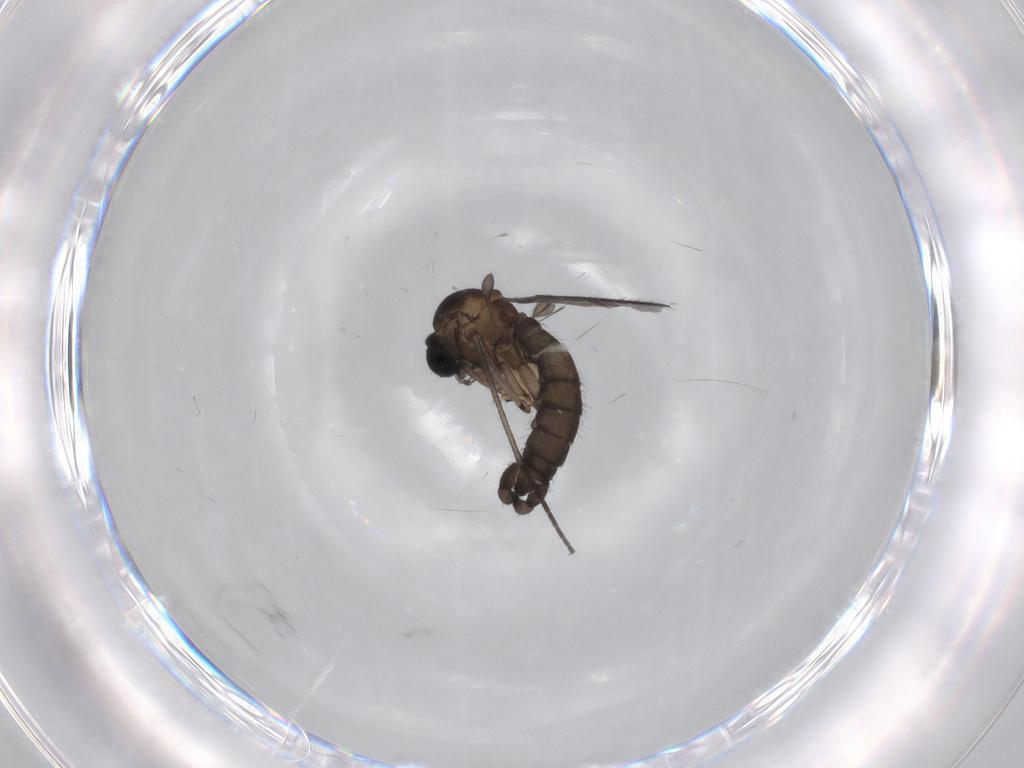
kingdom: Animalia
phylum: Arthropoda
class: Insecta
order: Diptera
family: Sciaridae
